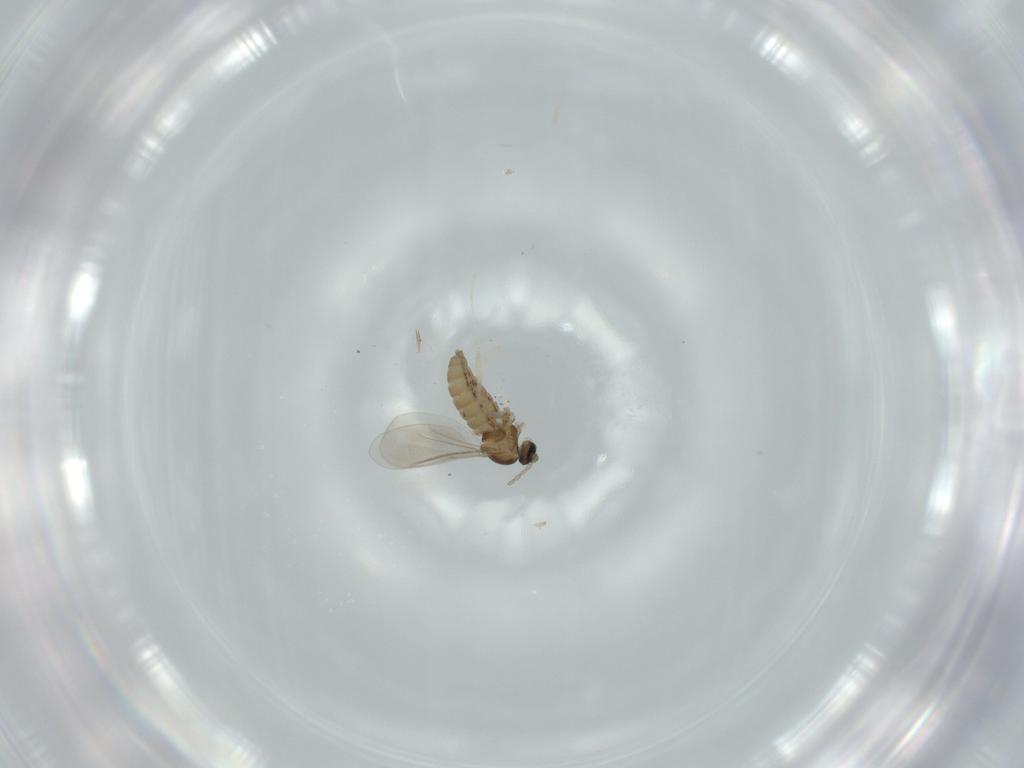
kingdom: Animalia
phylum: Arthropoda
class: Insecta
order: Diptera
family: Cecidomyiidae
